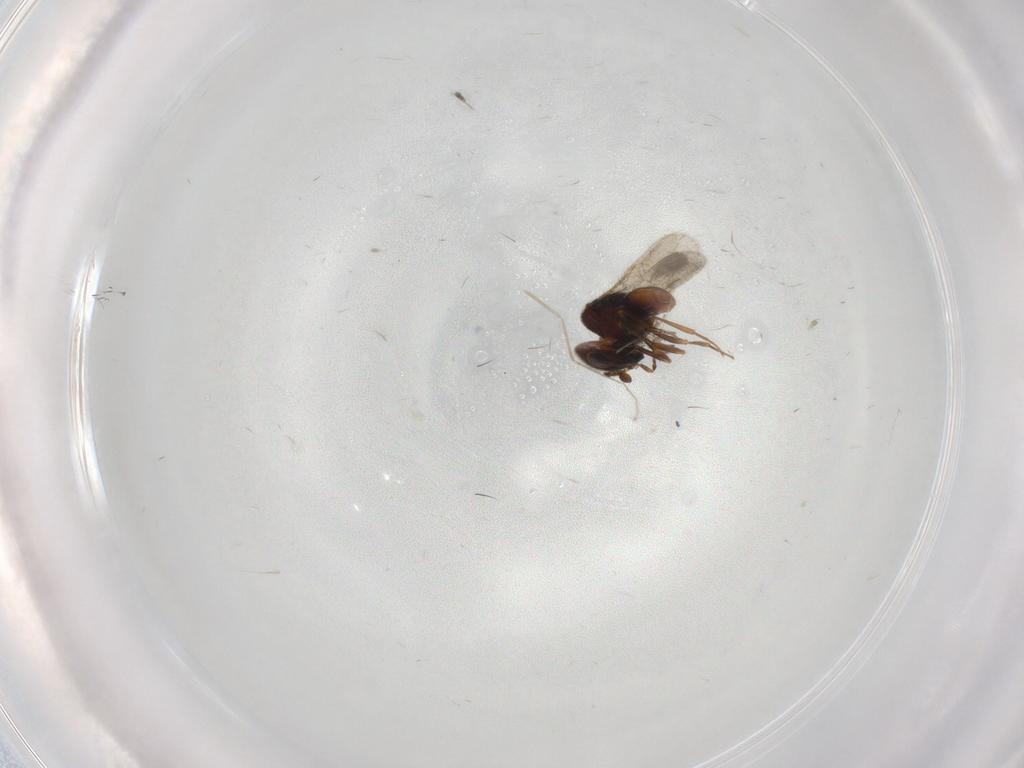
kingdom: Animalia
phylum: Arthropoda
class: Insecta
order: Hymenoptera
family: Scelionidae
